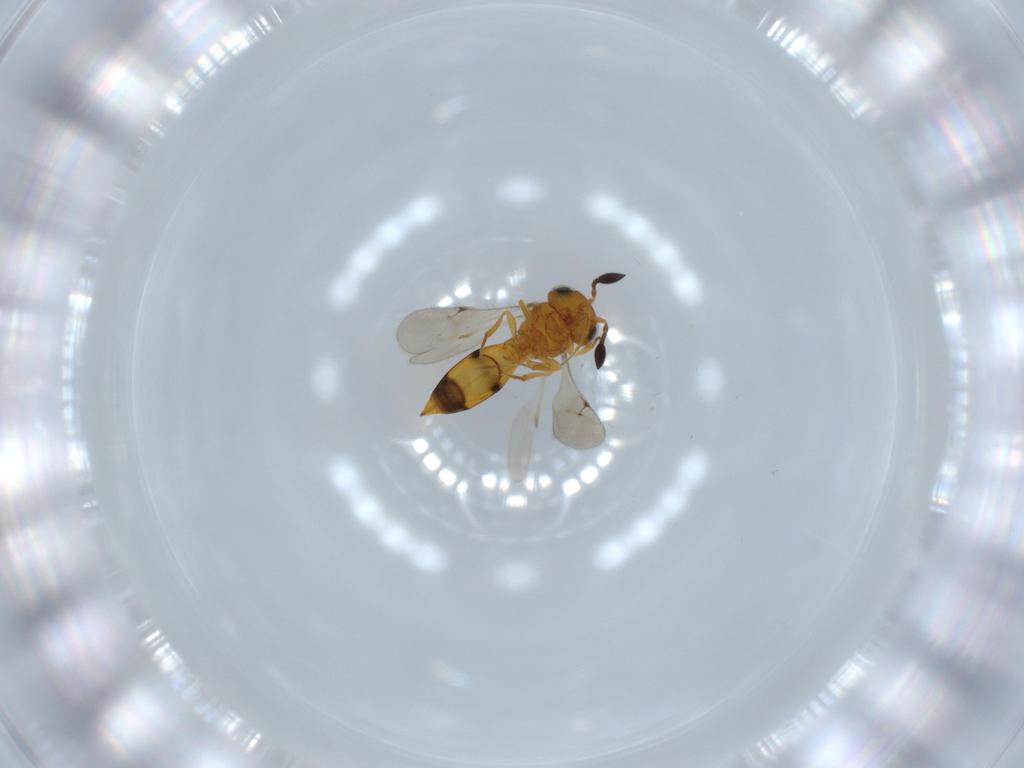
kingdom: Animalia
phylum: Arthropoda
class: Insecta
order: Hymenoptera
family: Scelionidae
